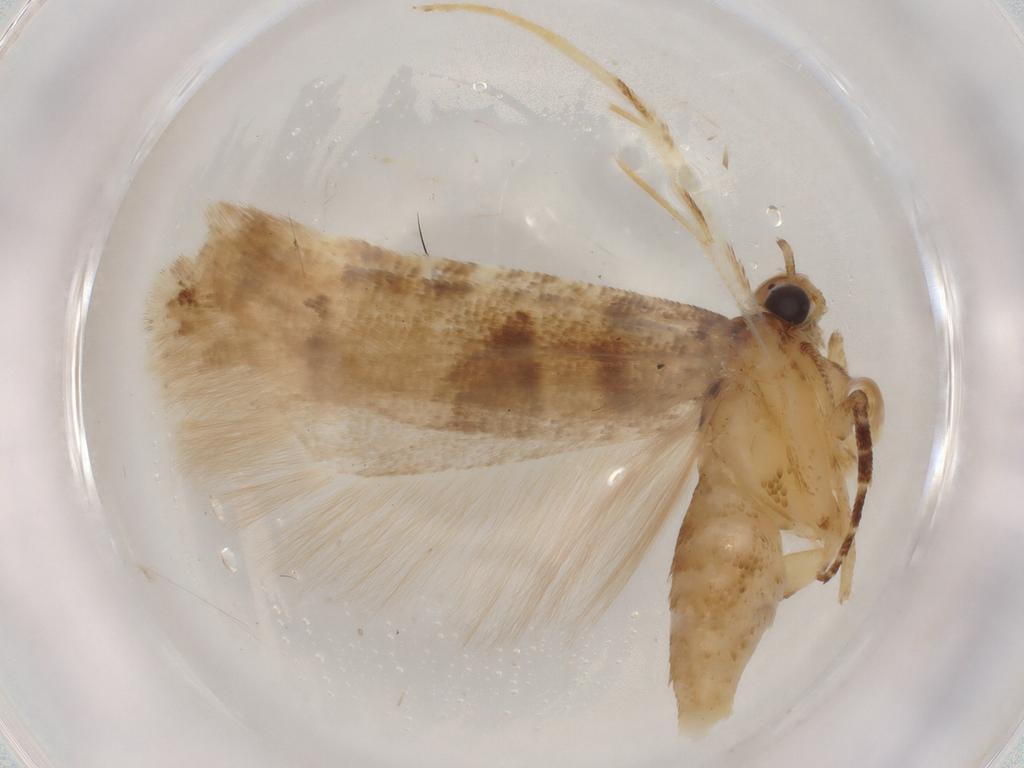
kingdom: Animalia
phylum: Arthropoda
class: Insecta
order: Lepidoptera
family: Gelechiidae
